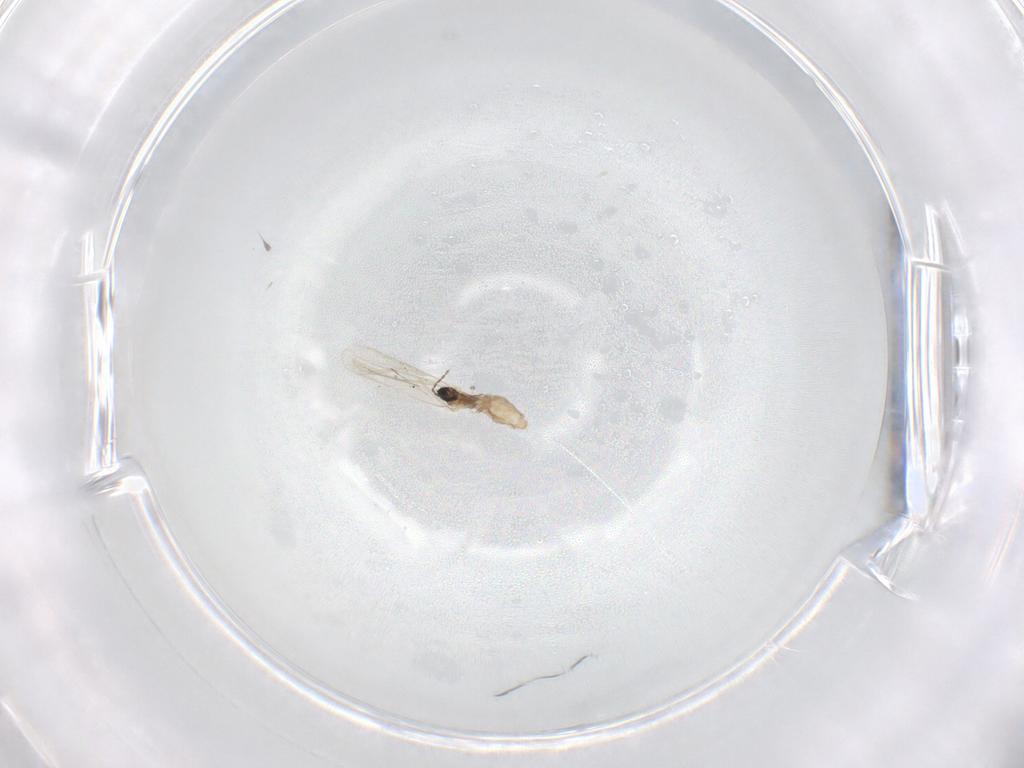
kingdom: Animalia
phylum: Arthropoda
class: Insecta
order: Diptera
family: Cecidomyiidae
